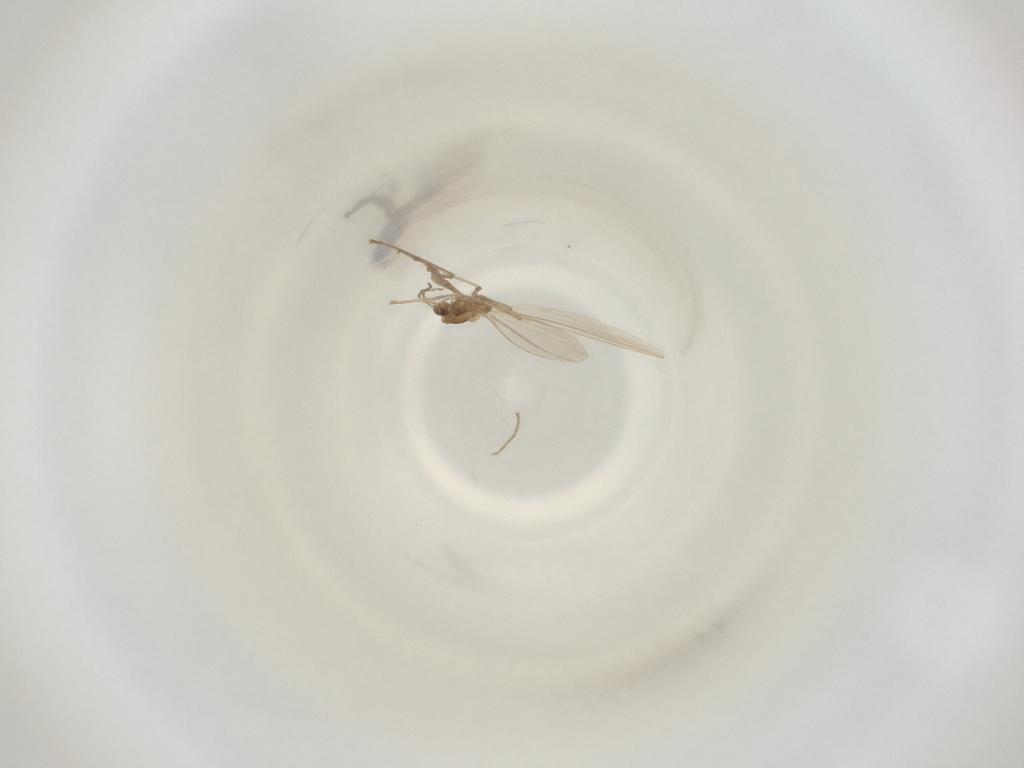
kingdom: Animalia
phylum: Arthropoda
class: Insecta
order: Diptera
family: Cecidomyiidae
